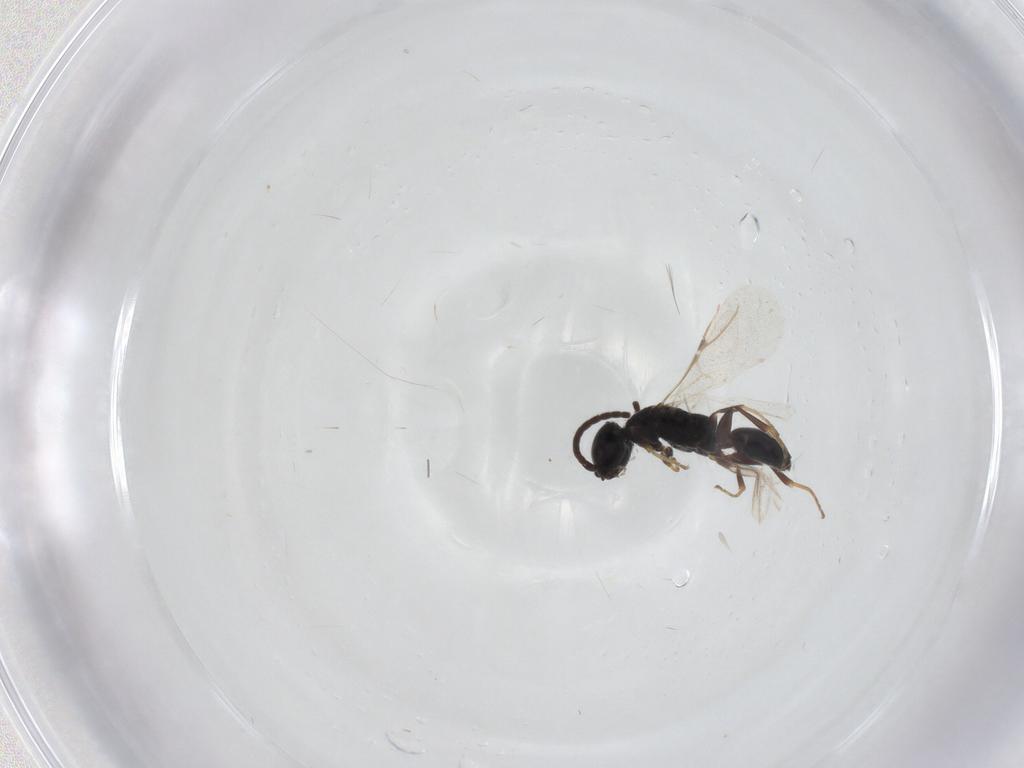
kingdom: Animalia
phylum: Arthropoda
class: Insecta
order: Hymenoptera
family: Bethylidae
